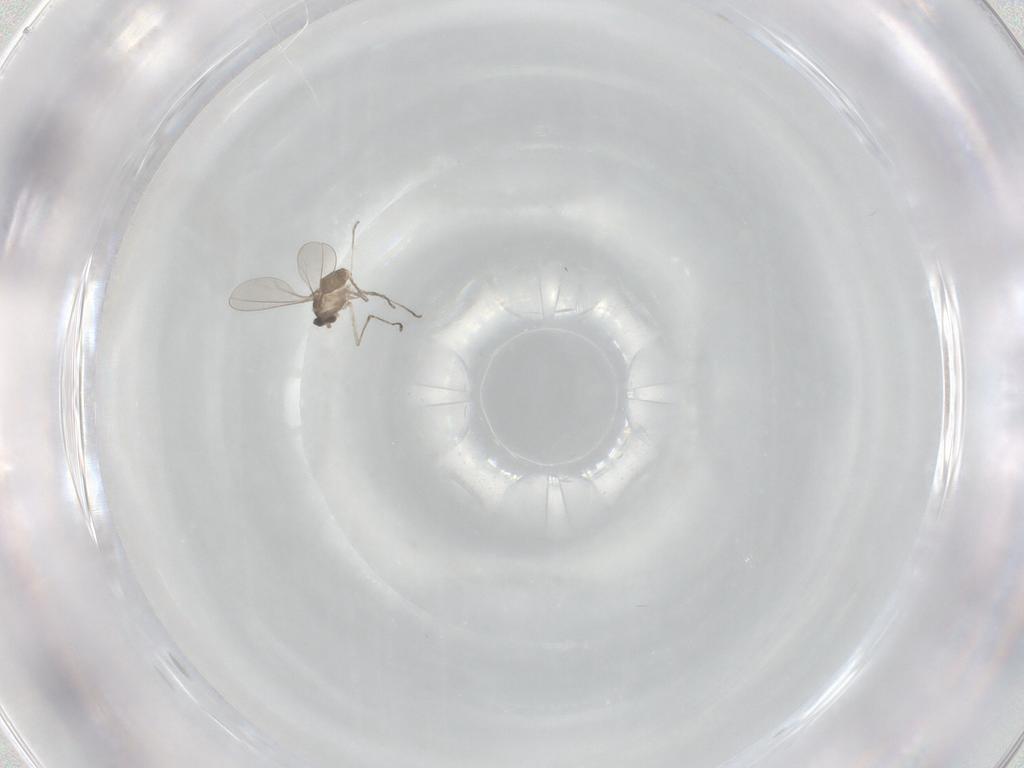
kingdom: Animalia
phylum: Arthropoda
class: Insecta
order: Diptera
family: Cecidomyiidae
